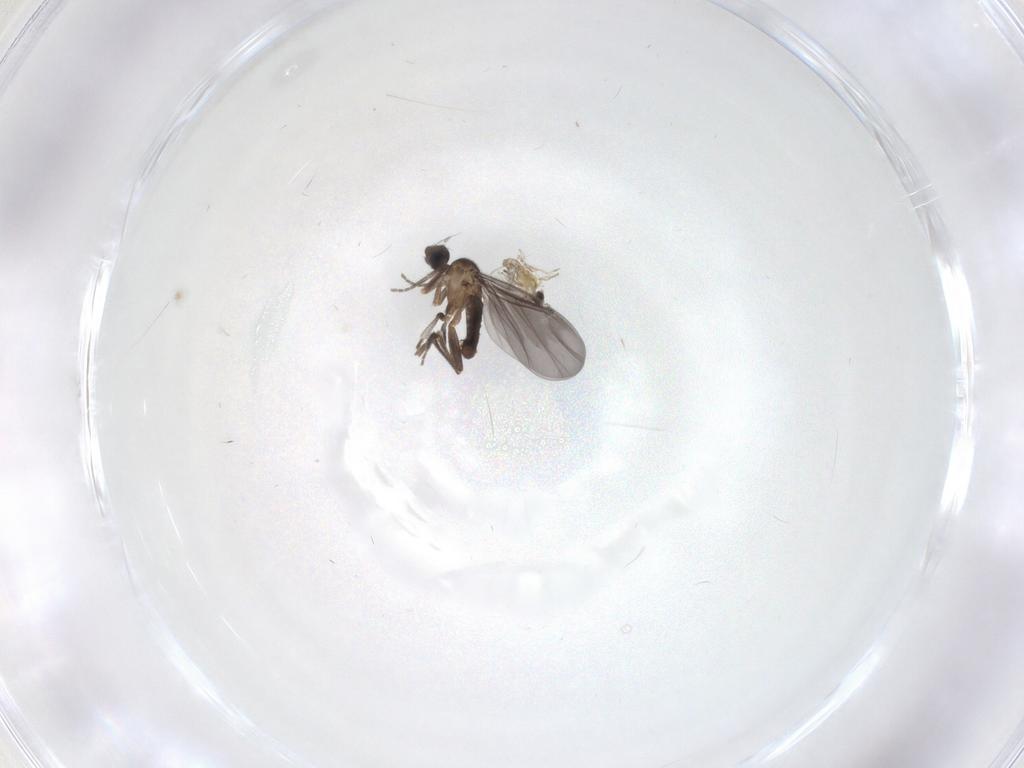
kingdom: Animalia
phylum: Arthropoda
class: Insecta
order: Diptera
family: Phoridae
